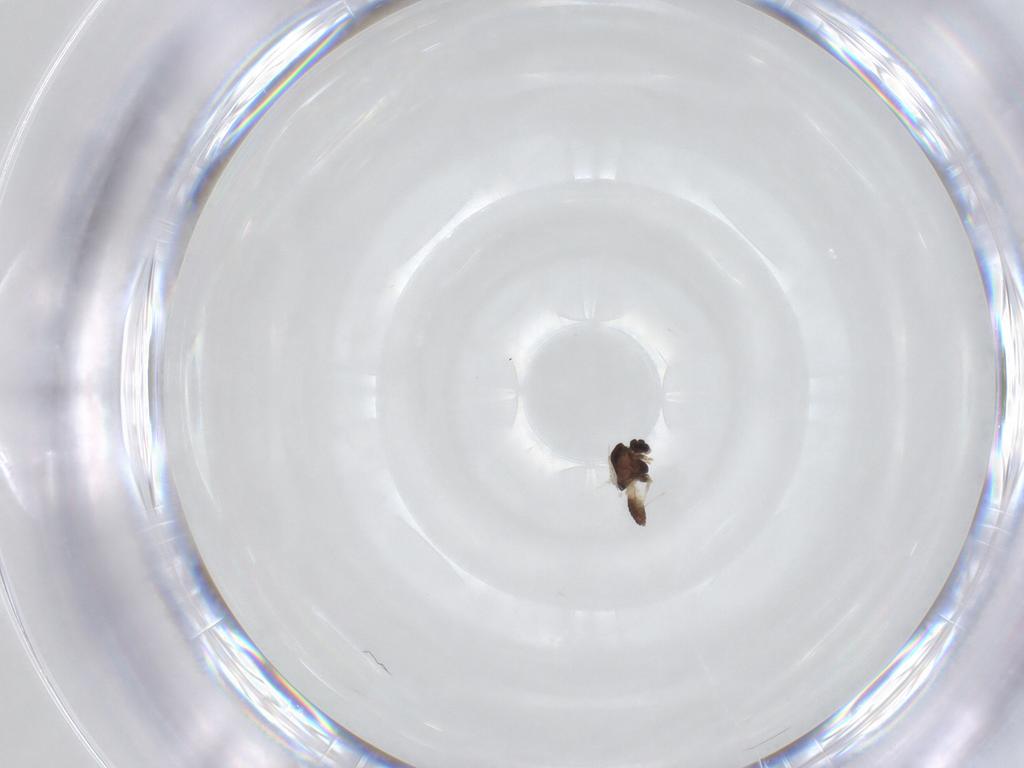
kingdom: Animalia
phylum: Arthropoda
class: Insecta
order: Diptera
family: Chironomidae
